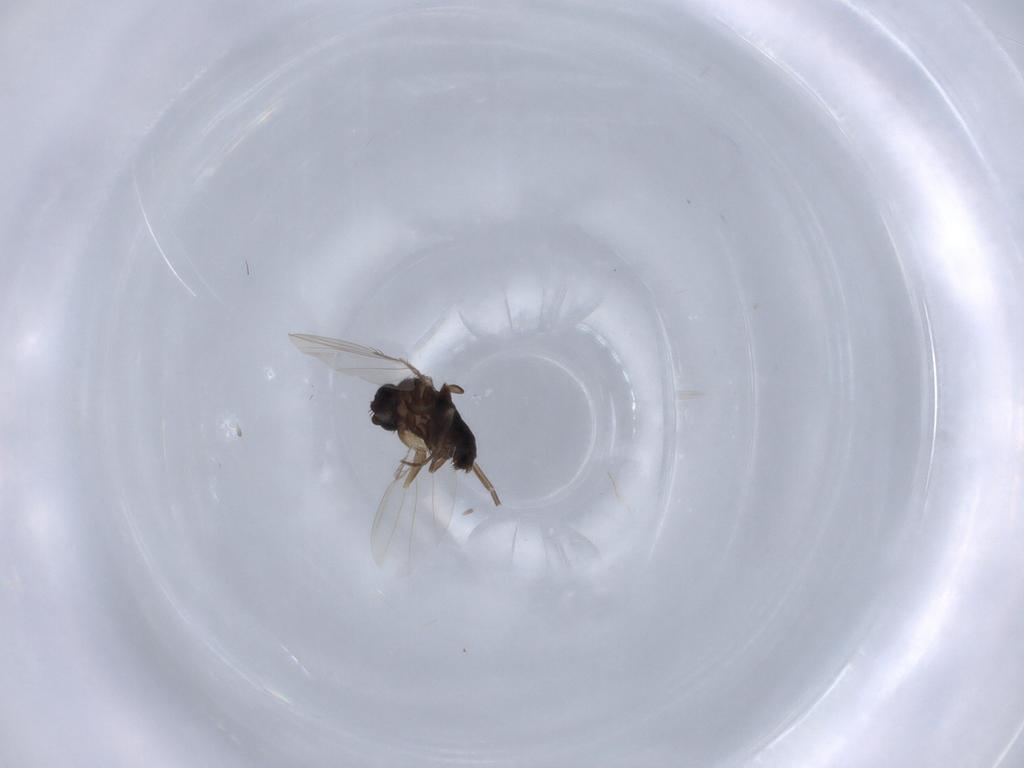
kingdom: Animalia
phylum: Arthropoda
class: Insecta
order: Diptera
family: Phoridae
